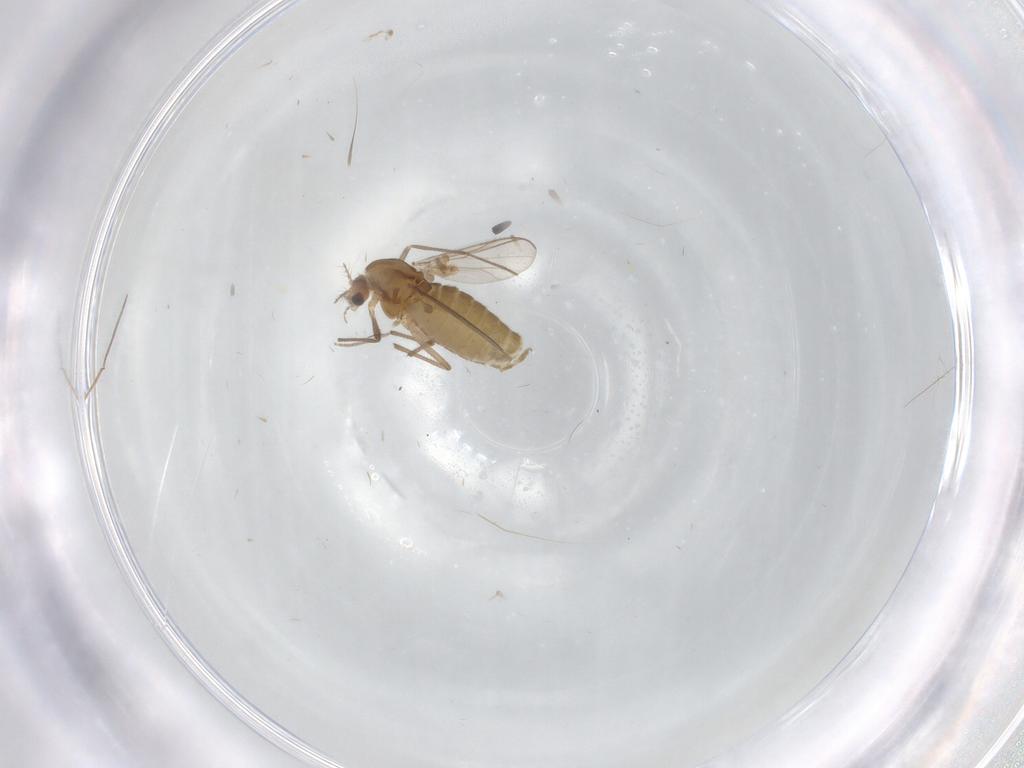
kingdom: Animalia
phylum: Arthropoda
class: Insecta
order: Diptera
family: Chironomidae
